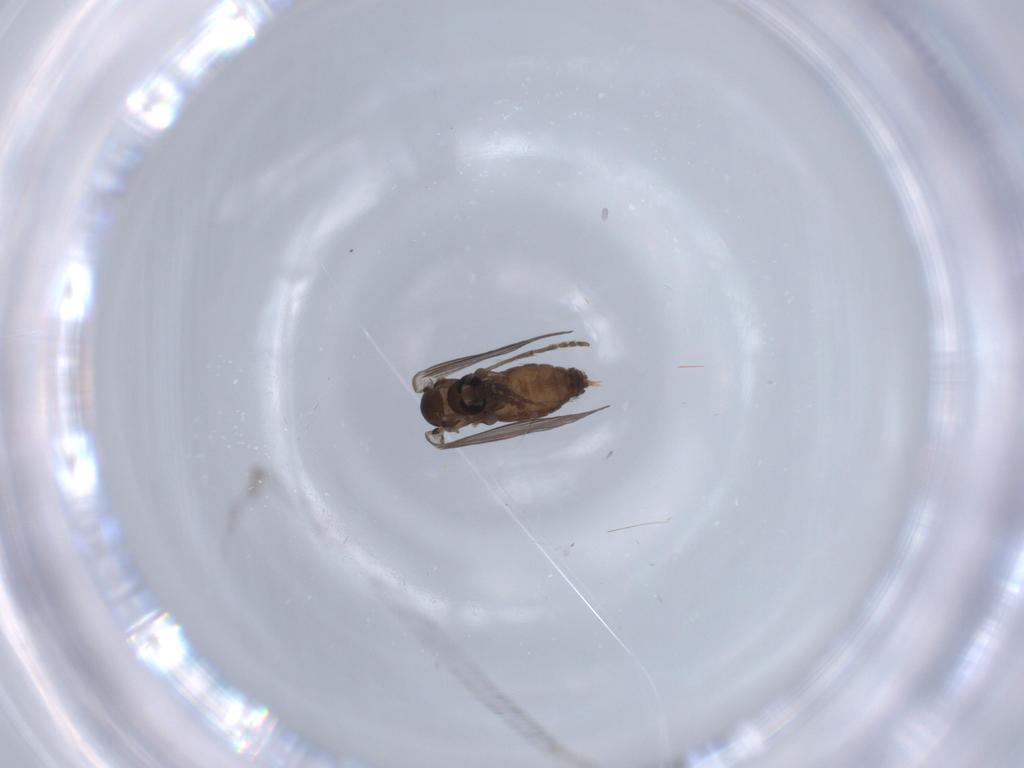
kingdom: Animalia
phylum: Arthropoda
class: Insecta
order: Diptera
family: Psychodidae
